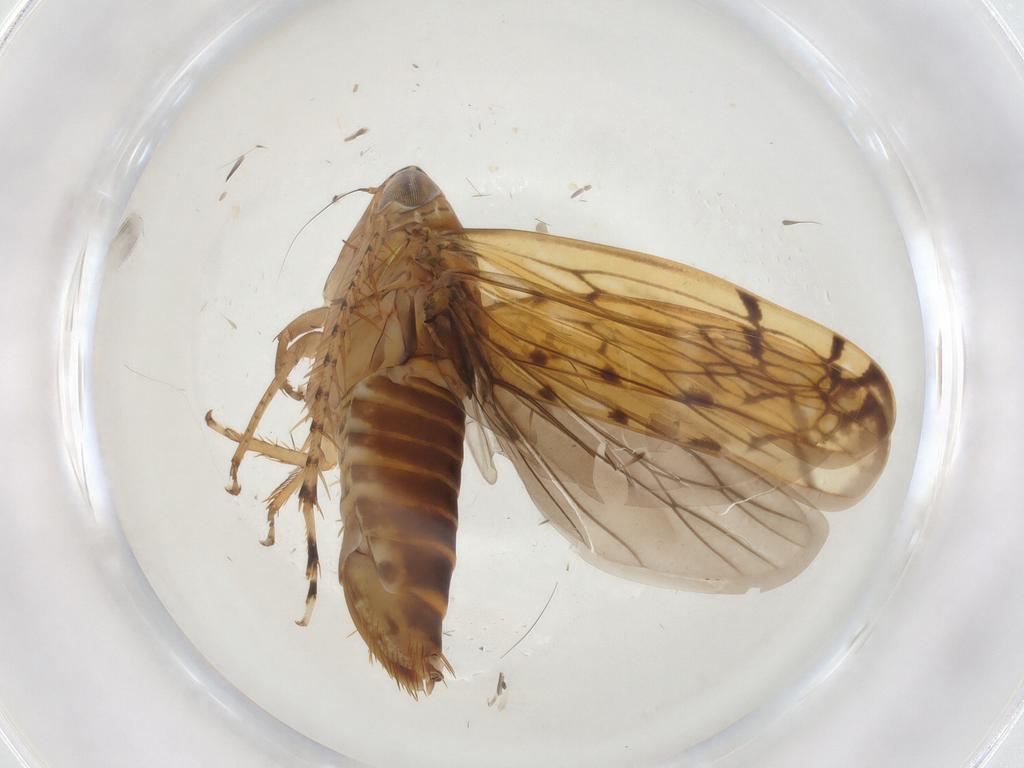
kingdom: Animalia
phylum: Arthropoda
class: Insecta
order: Hemiptera
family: Cicadellidae
